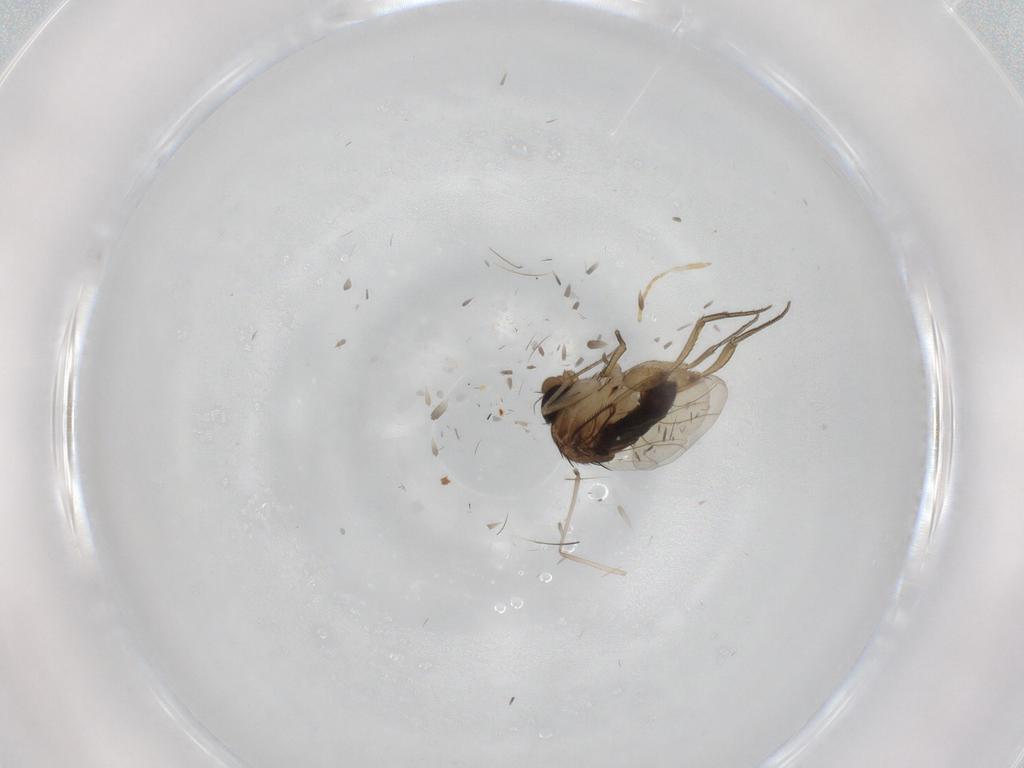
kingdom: Animalia
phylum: Arthropoda
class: Insecta
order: Diptera
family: Cecidomyiidae
